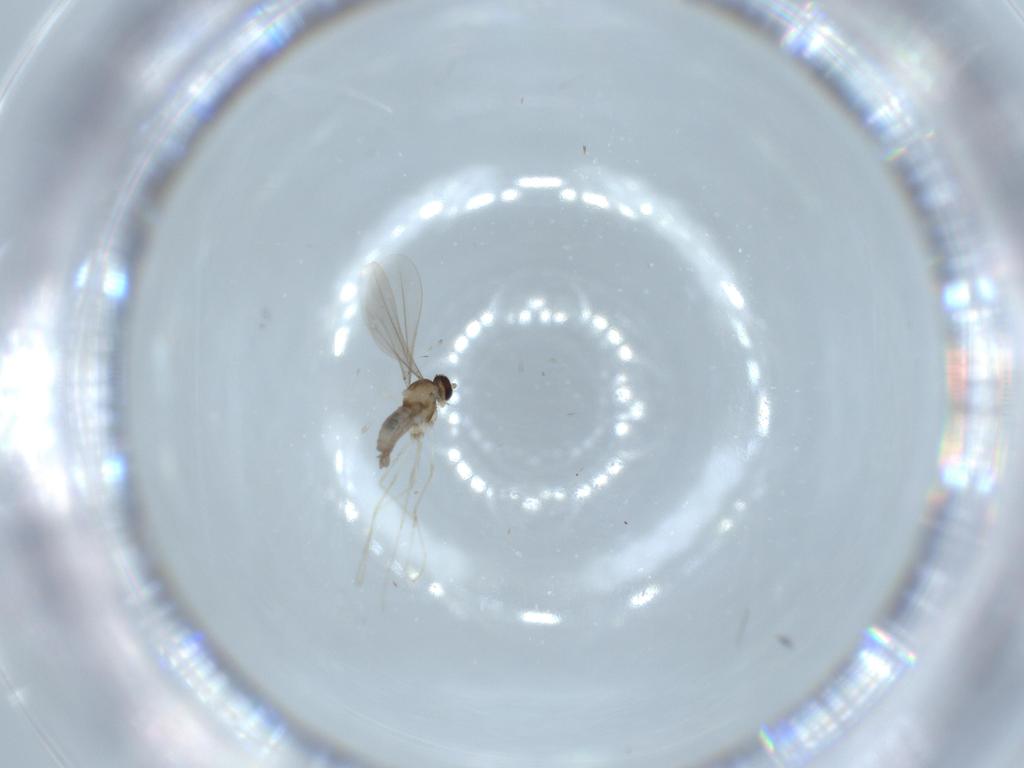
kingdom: Animalia
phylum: Arthropoda
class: Insecta
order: Diptera
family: Cecidomyiidae
